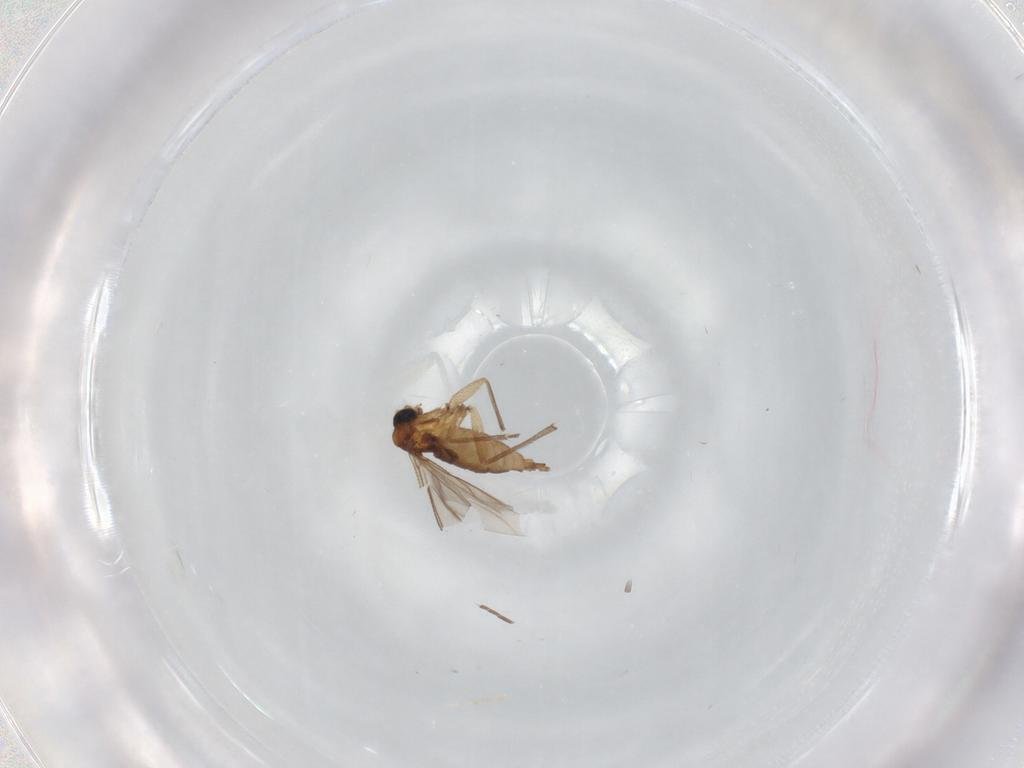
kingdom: Animalia
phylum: Arthropoda
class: Insecta
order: Diptera
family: Sciaridae
